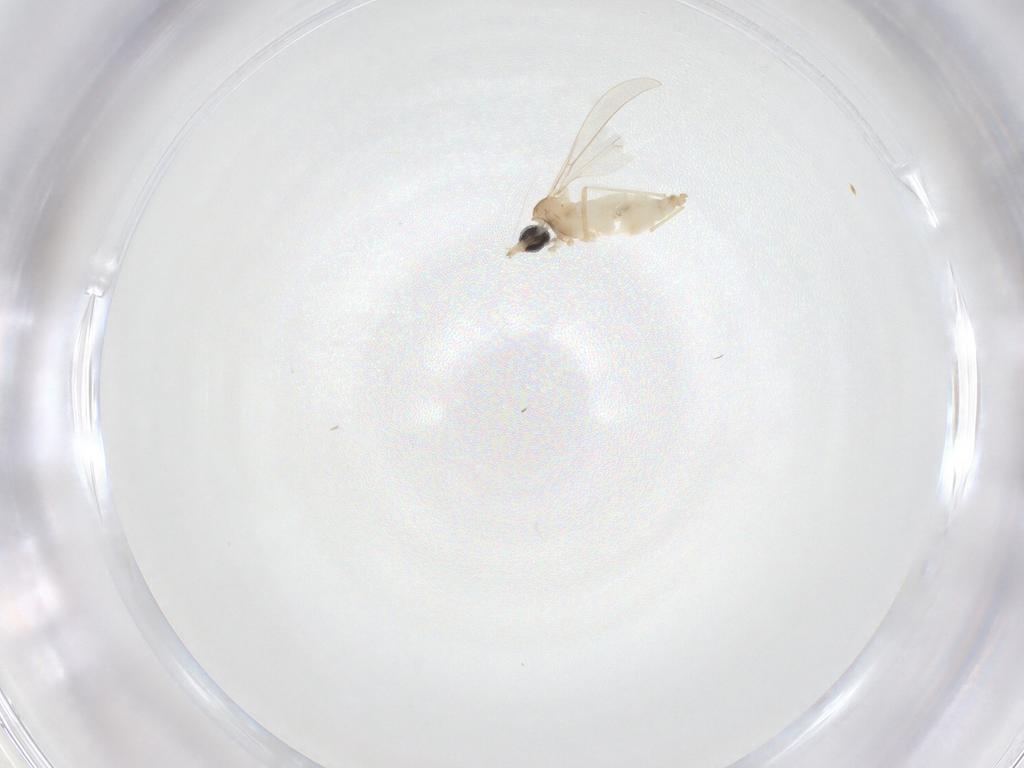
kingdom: Animalia
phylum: Arthropoda
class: Insecta
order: Diptera
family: Cecidomyiidae
